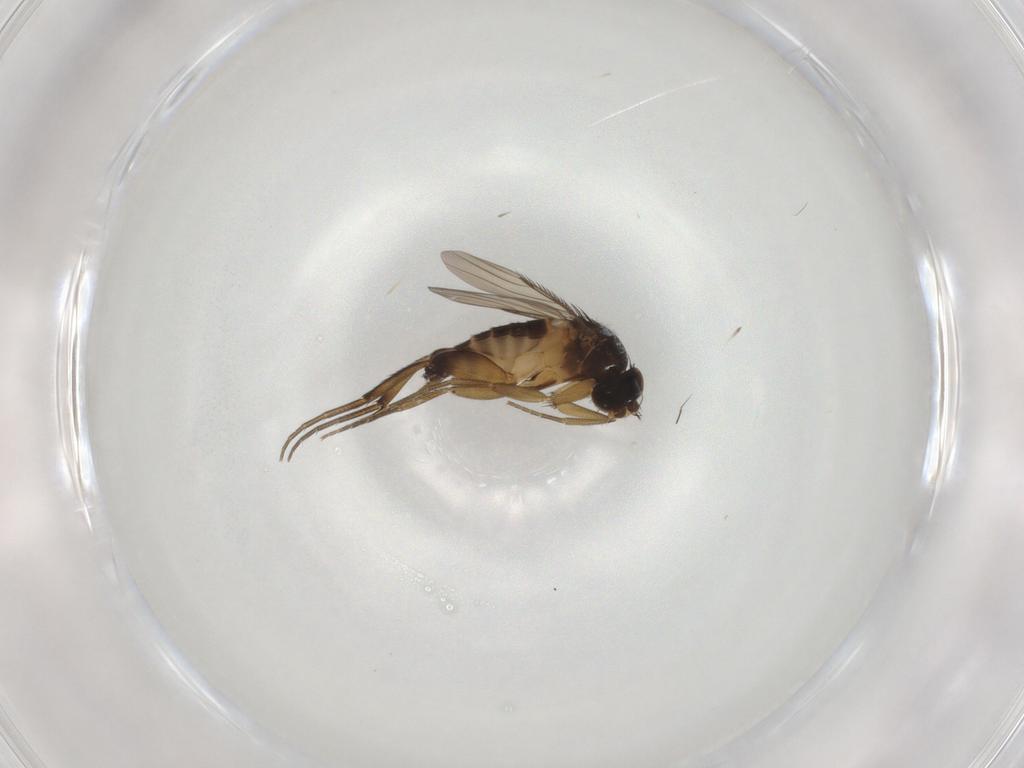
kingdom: Animalia
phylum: Arthropoda
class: Insecta
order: Diptera
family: Phoridae
